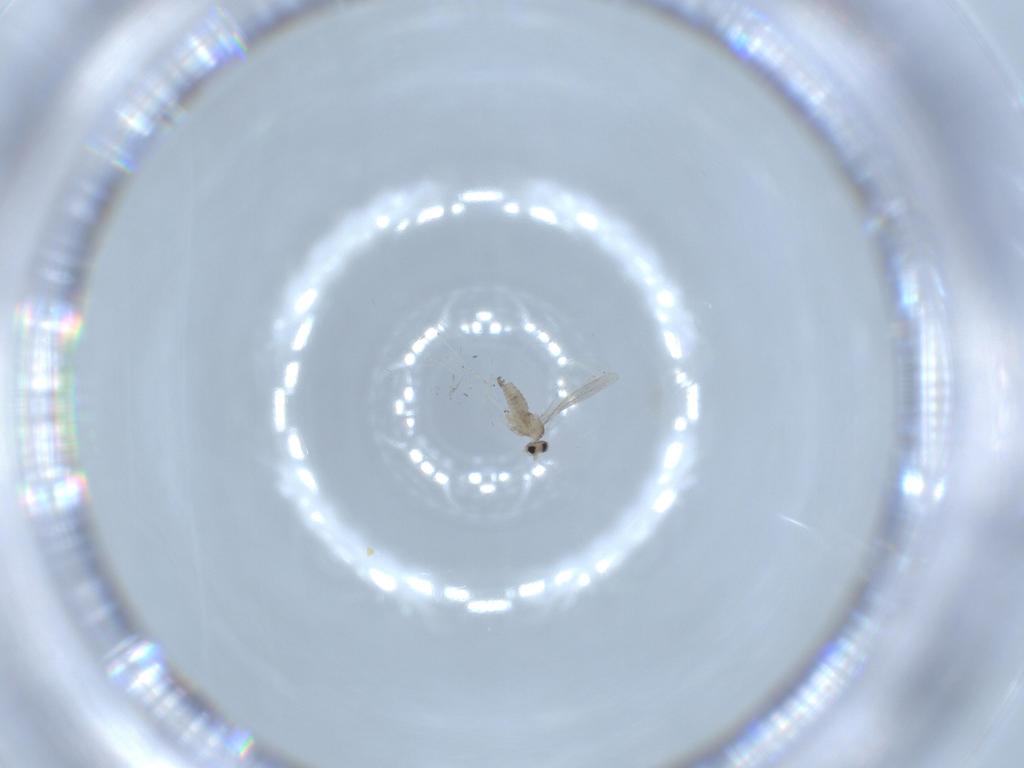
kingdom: Animalia
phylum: Arthropoda
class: Insecta
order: Diptera
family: Cecidomyiidae
